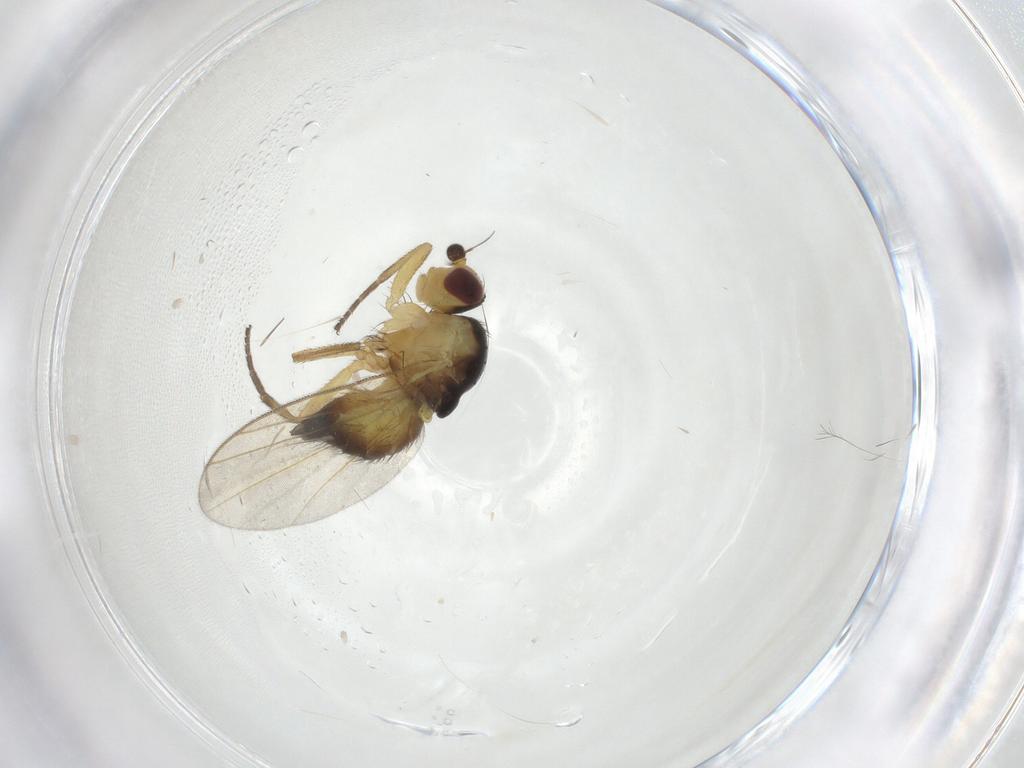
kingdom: Animalia
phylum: Arthropoda
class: Insecta
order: Diptera
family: Agromyzidae
